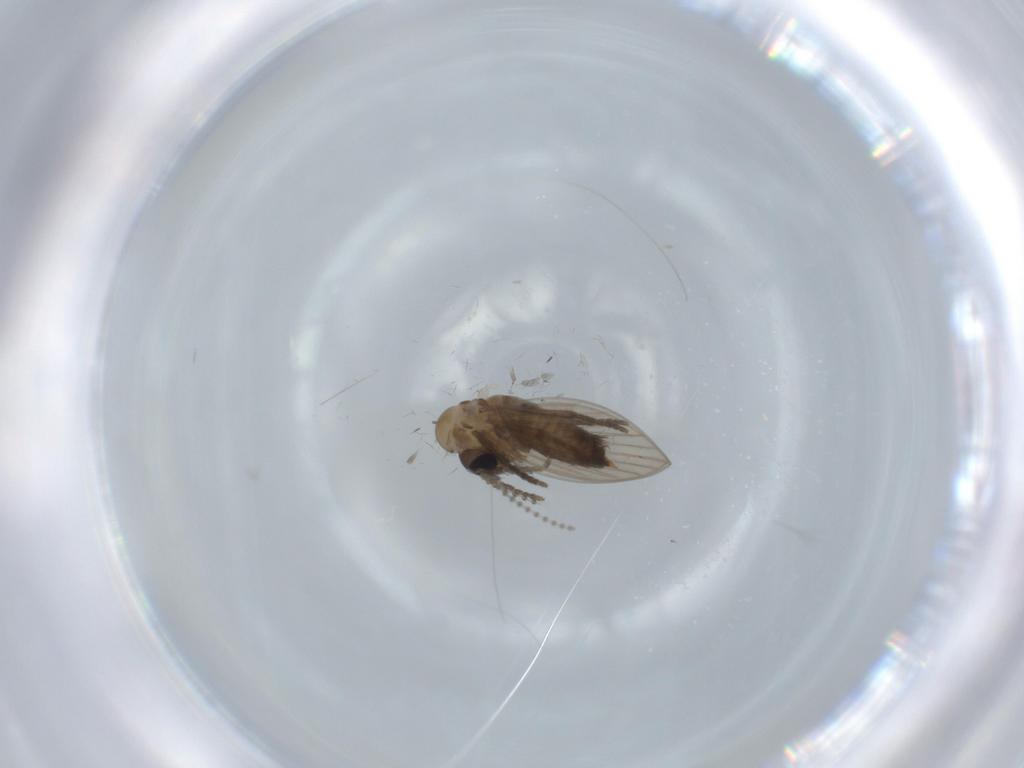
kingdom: Animalia
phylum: Arthropoda
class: Insecta
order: Diptera
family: Psychodidae
